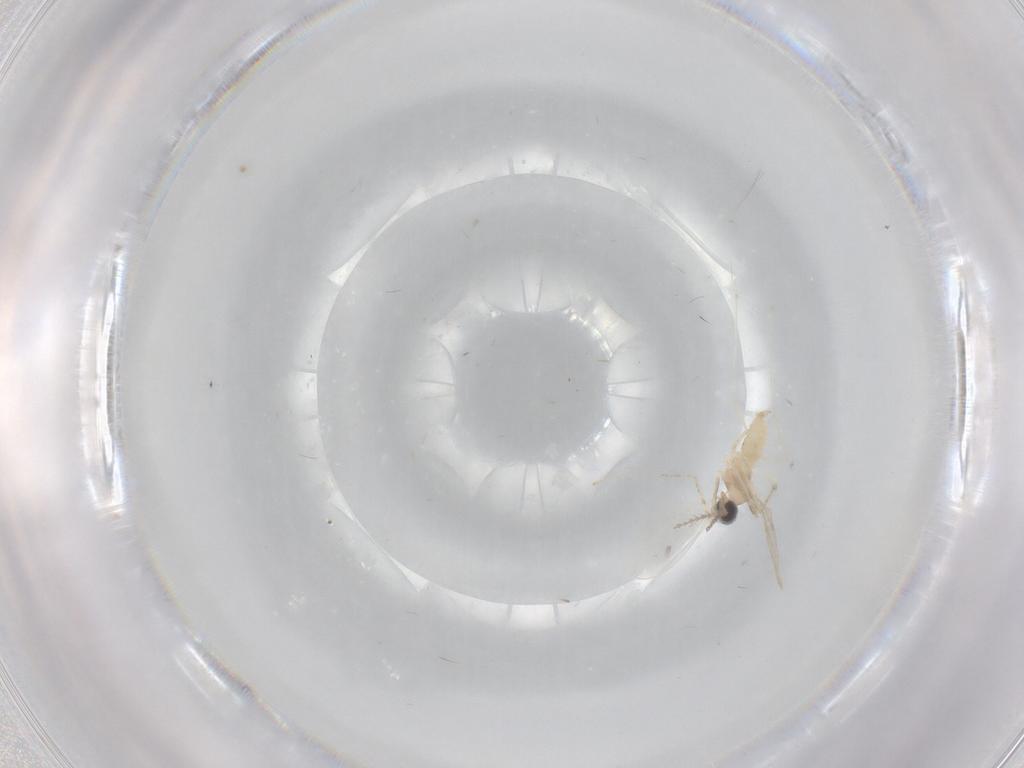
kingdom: Animalia
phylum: Arthropoda
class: Insecta
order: Diptera
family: Cecidomyiidae
